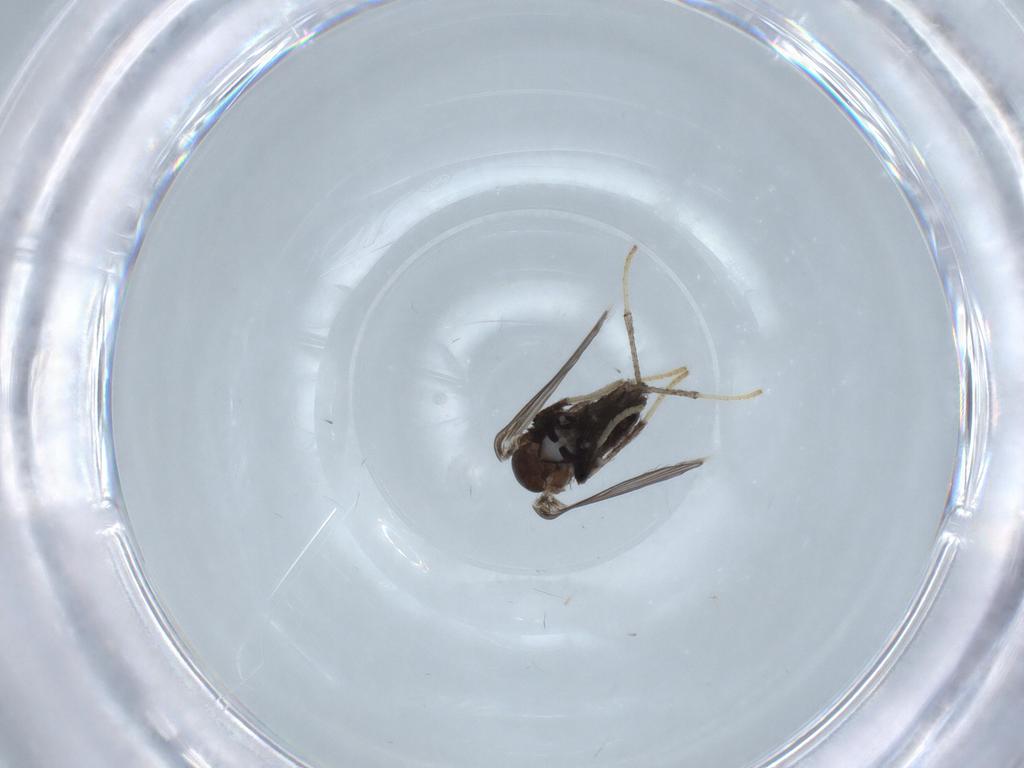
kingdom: Animalia
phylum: Arthropoda
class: Insecta
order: Diptera
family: Psychodidae
